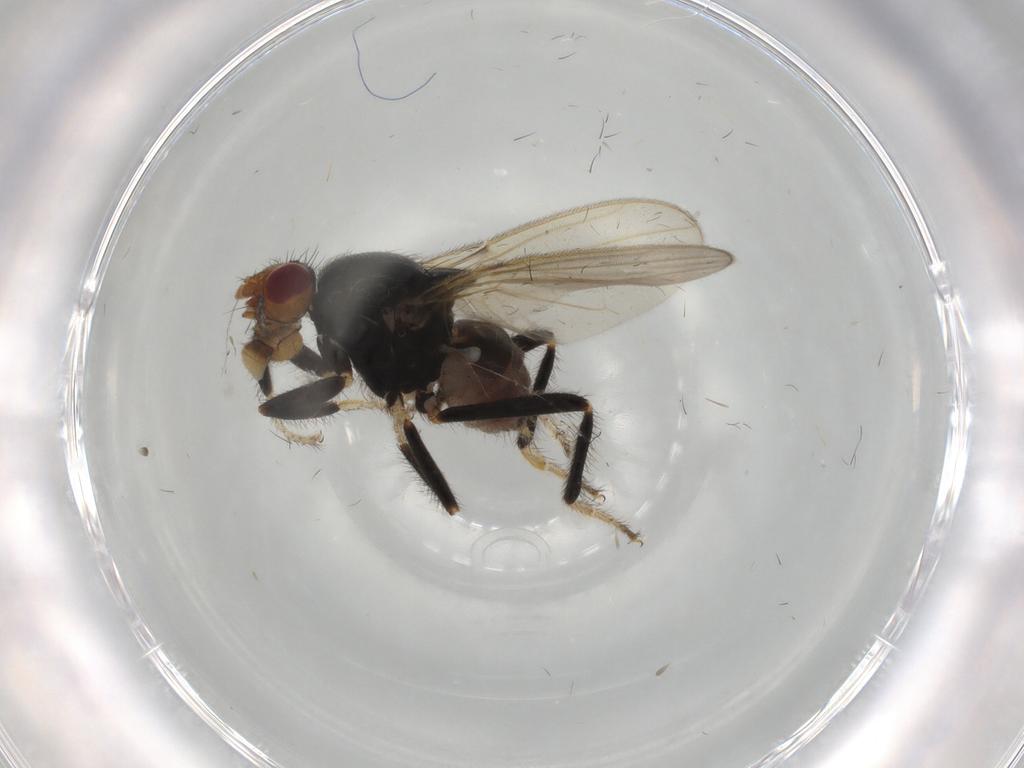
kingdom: Animalia
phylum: Arthropoda
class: Insecta
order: Diptera
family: Sphaeroceridae
